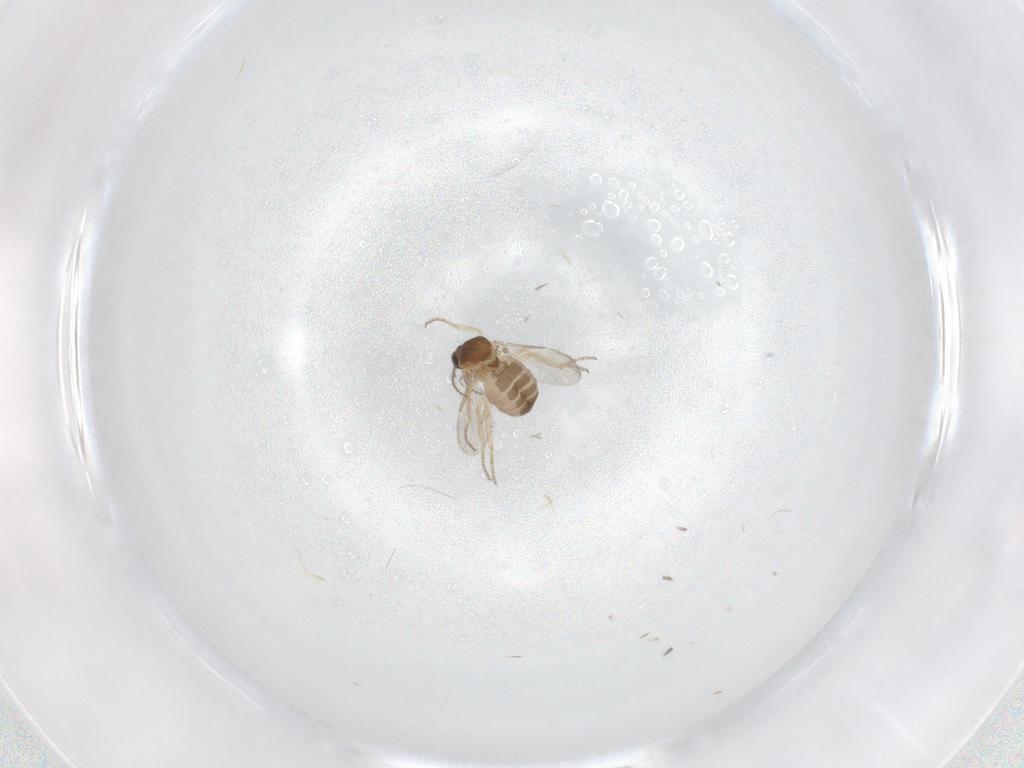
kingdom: Animalia
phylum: Arthropoda
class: Insecta
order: Diptera
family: Ceratopogonidae
